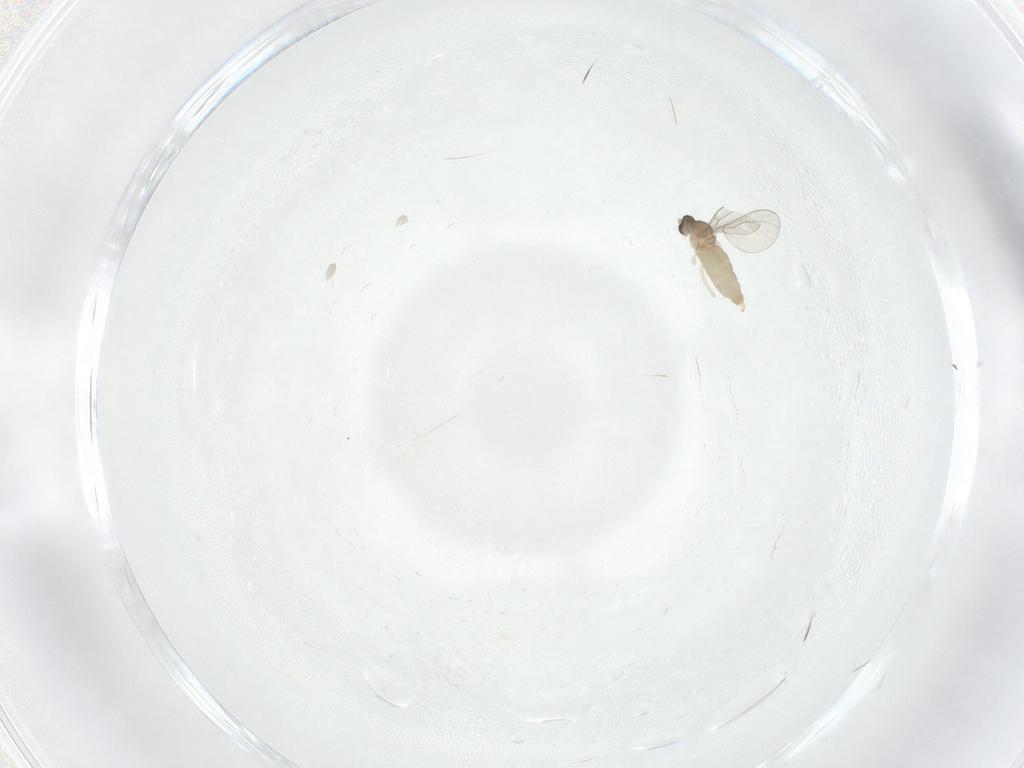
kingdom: Animalia
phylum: Arthropoda
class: Insecta
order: Diptera
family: Cecidomyiidae
